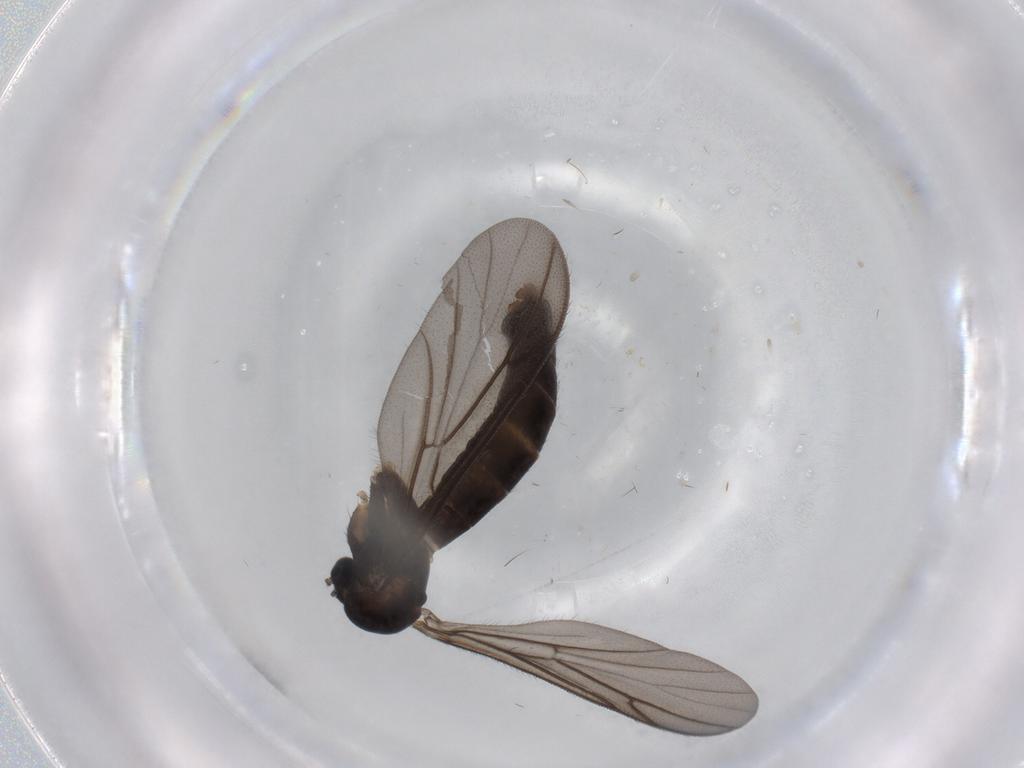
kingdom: Animalia
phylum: Arthropoda
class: Insecta
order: Diptera
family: Keroplatidae
